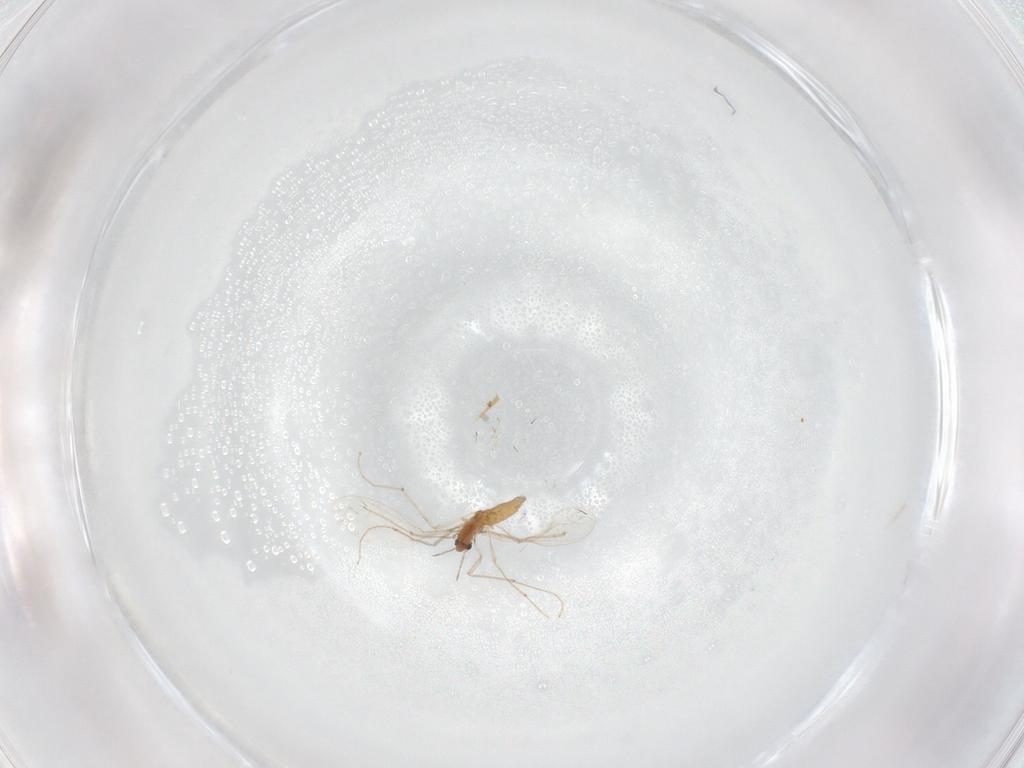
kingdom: Animalia
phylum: Arthropoda
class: Insecta
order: Diptera
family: Chironomidae
